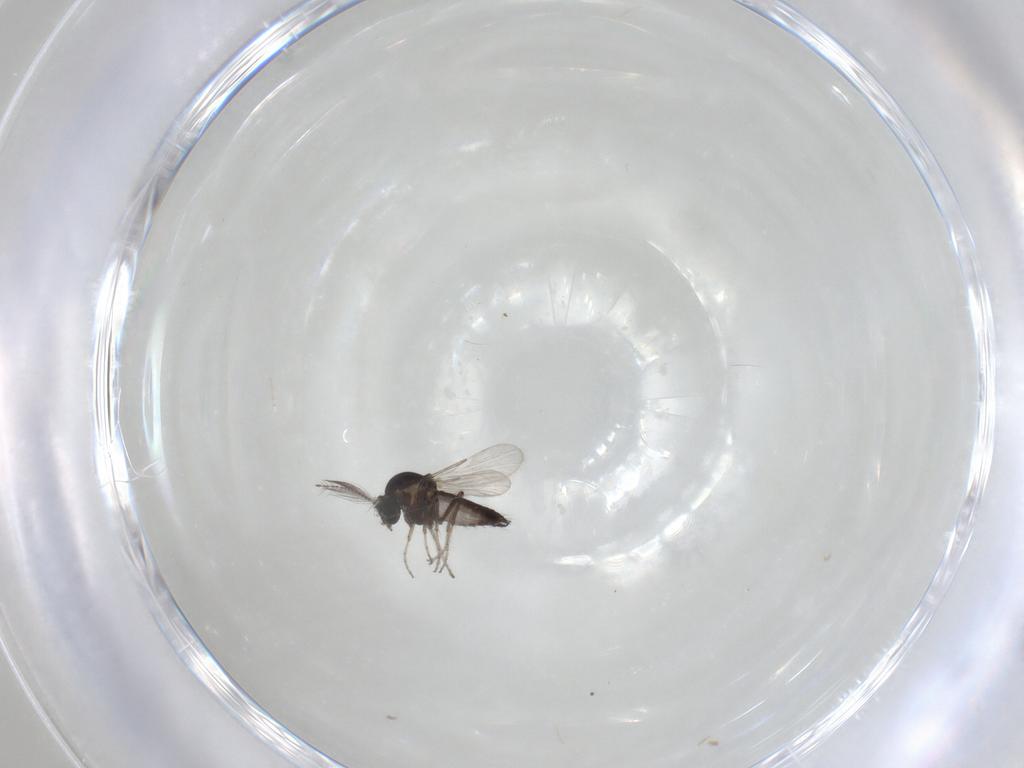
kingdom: Animalia
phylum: Arthropoda
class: Insecta
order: Diptera
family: Ceratopogonidae
